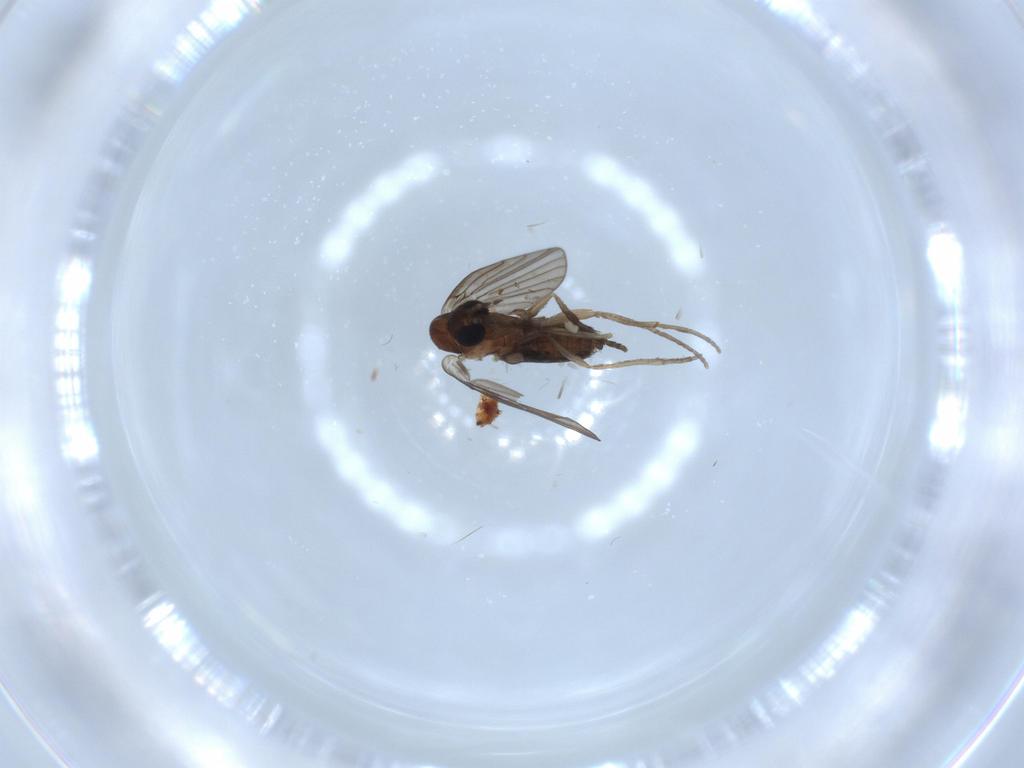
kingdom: Animalia
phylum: Arthropoda
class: Insecta
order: Diptera
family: Psychodidae
